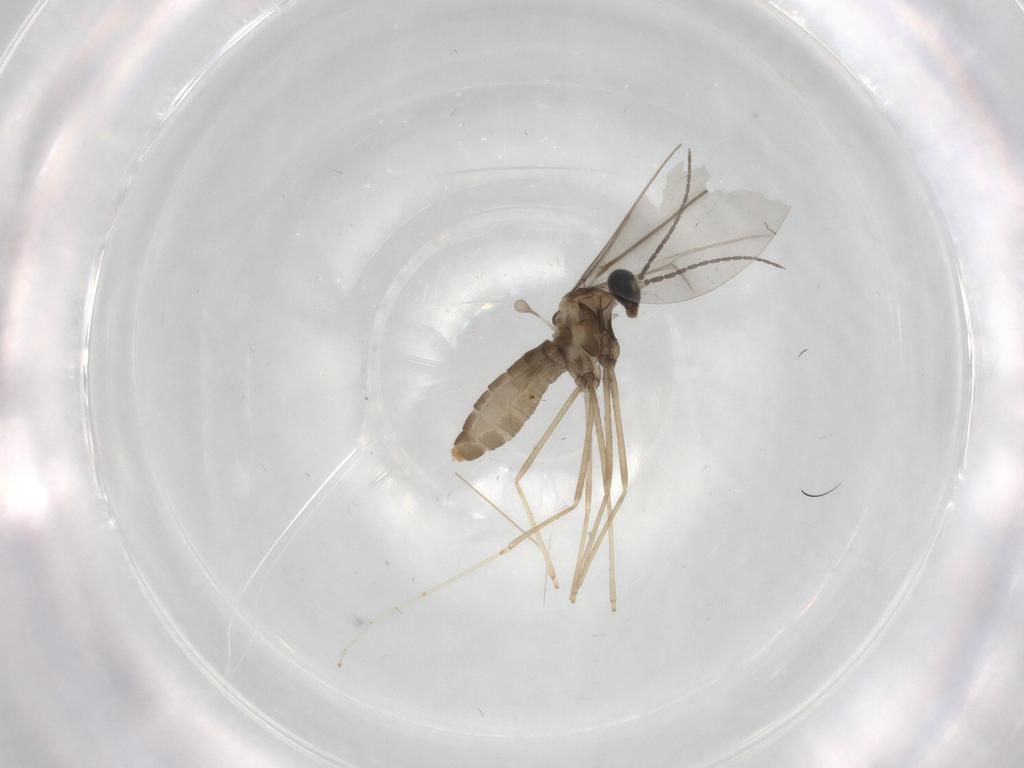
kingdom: Animalia
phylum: Arthropoda
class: Insecta
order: Diptera
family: Cecidomyiidae
